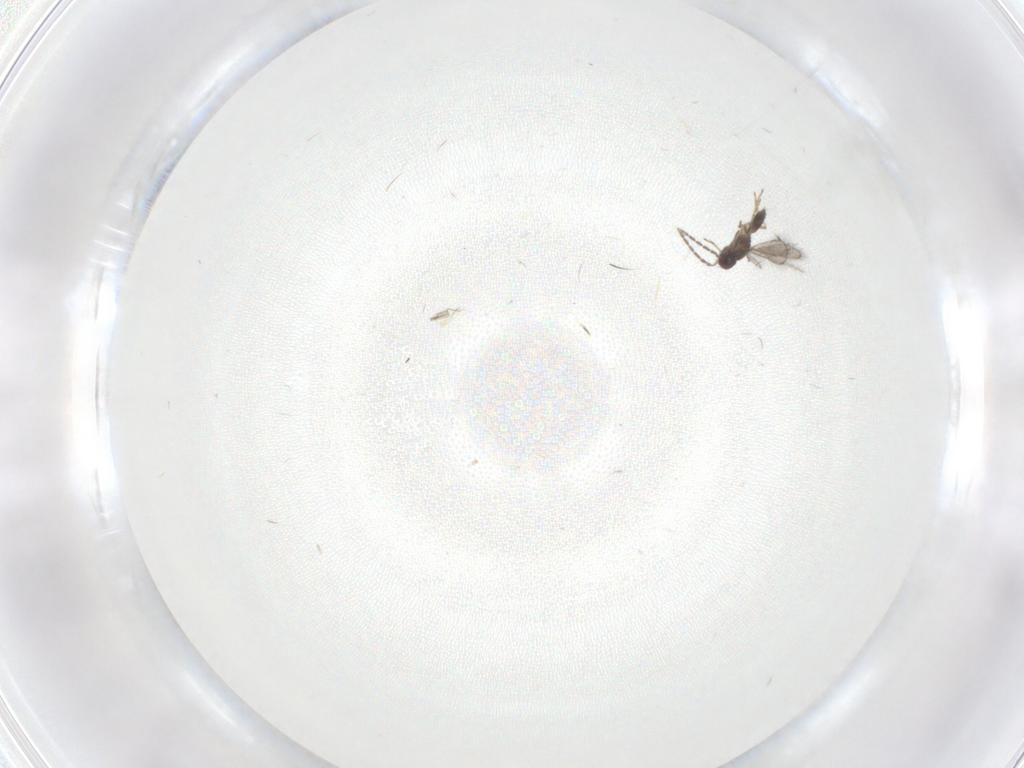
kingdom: Animalia
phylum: Arthropoda
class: Insecta
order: Hymenoptera
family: Eulophidae
